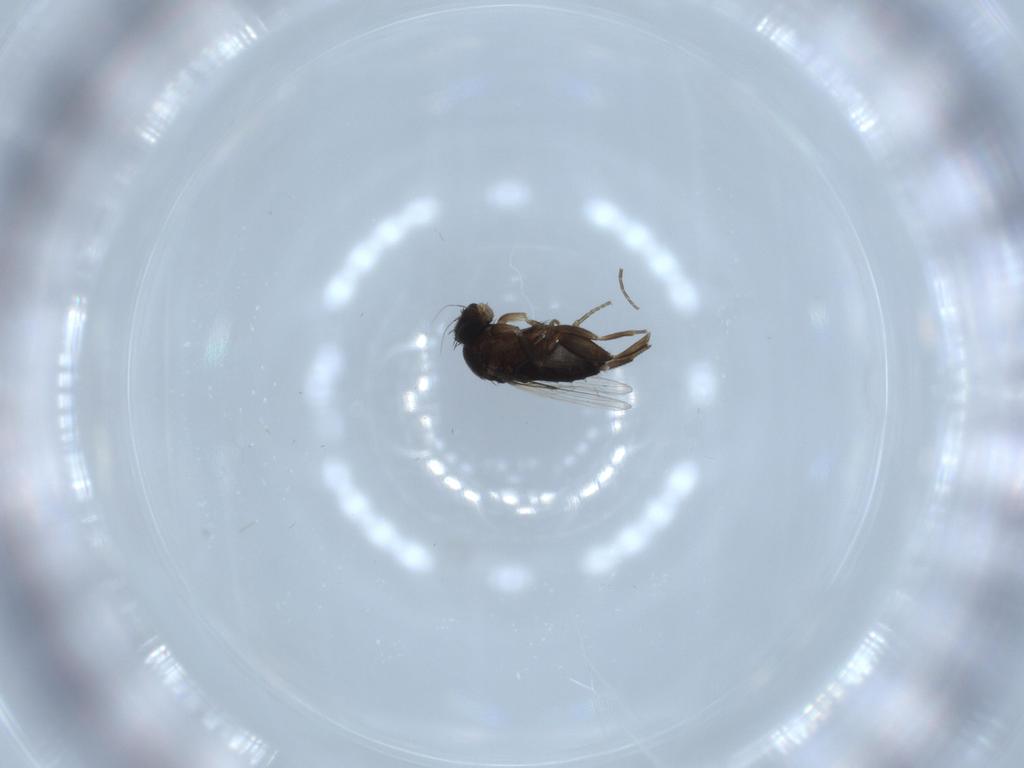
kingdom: Animalia
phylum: Arthropoda
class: Insecta
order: Diptera
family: Phoridae
